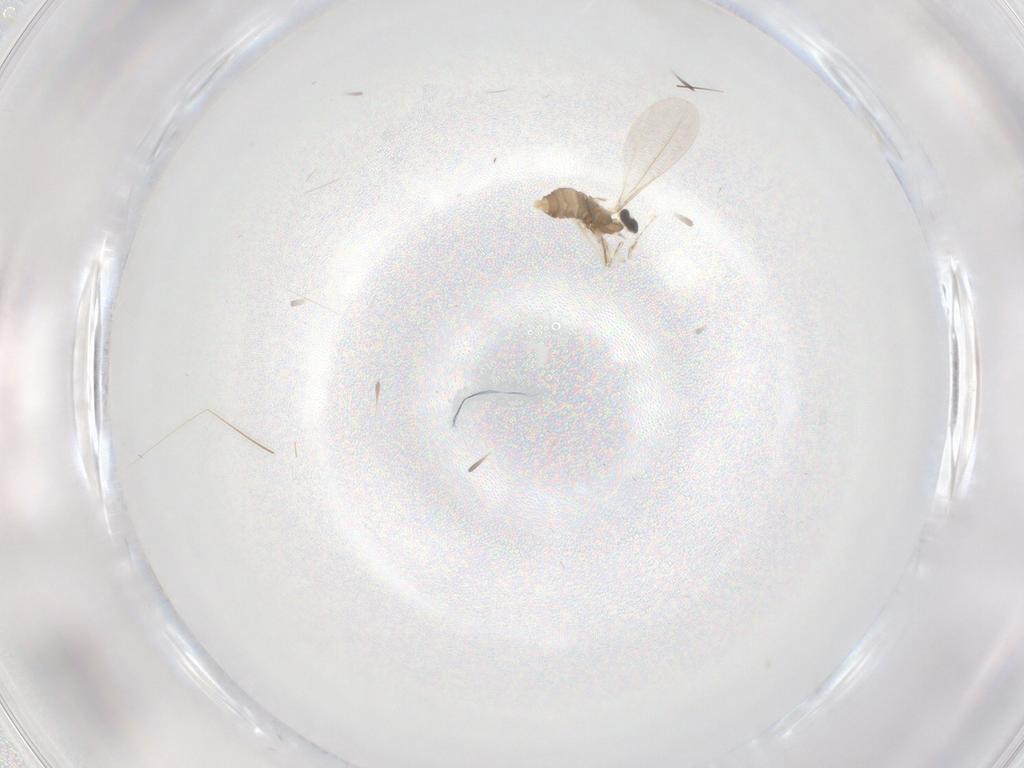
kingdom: Animalia
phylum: Arthropoda
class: Insecta
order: Diptera
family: Cecidomyiidae
